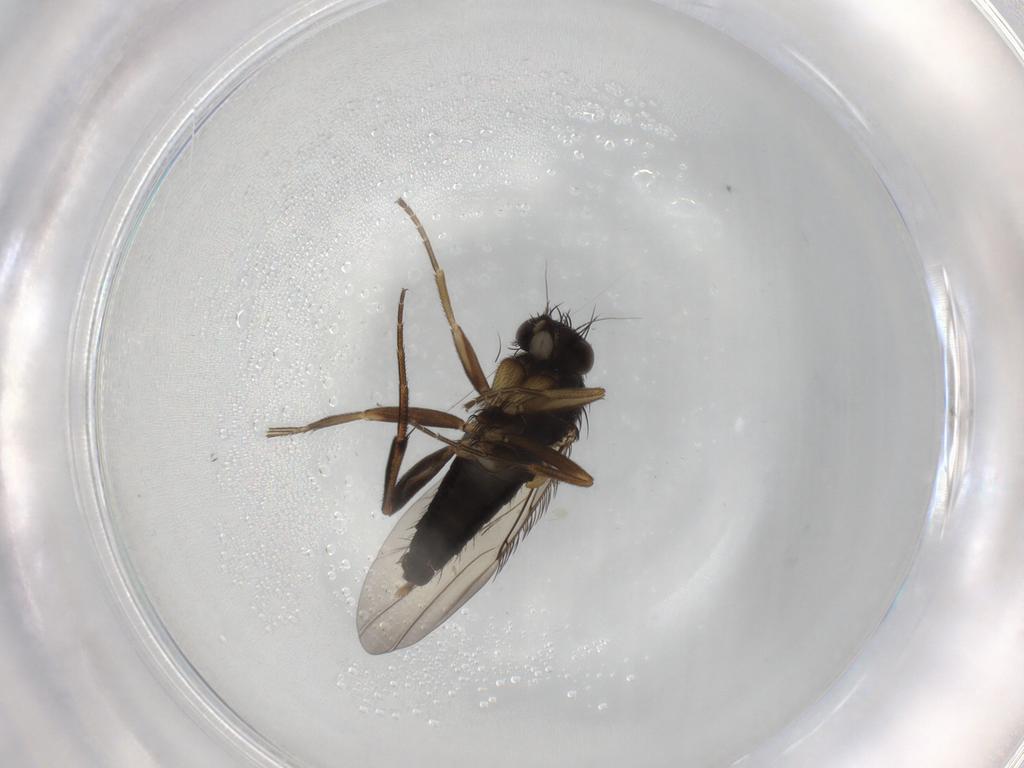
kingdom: Animalia
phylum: Arthropoda
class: Insecta
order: Diptera
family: Phoridae
